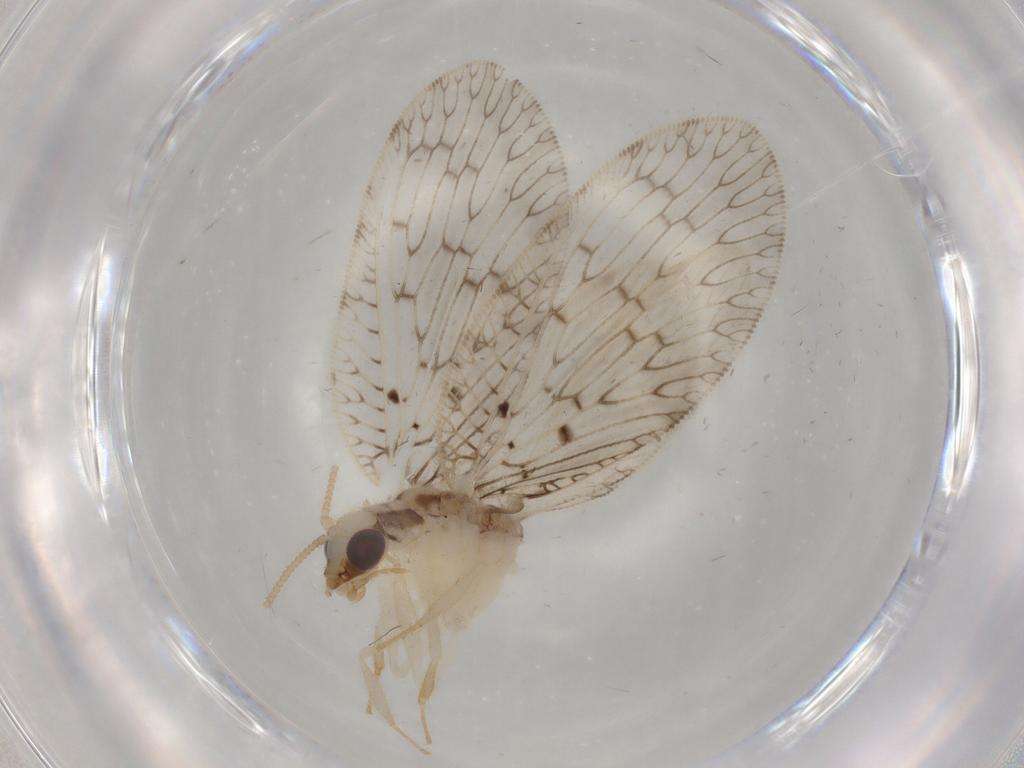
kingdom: Animalia
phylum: Arthropoda
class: Insecta
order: Neuroptera
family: Hemerobiidae
